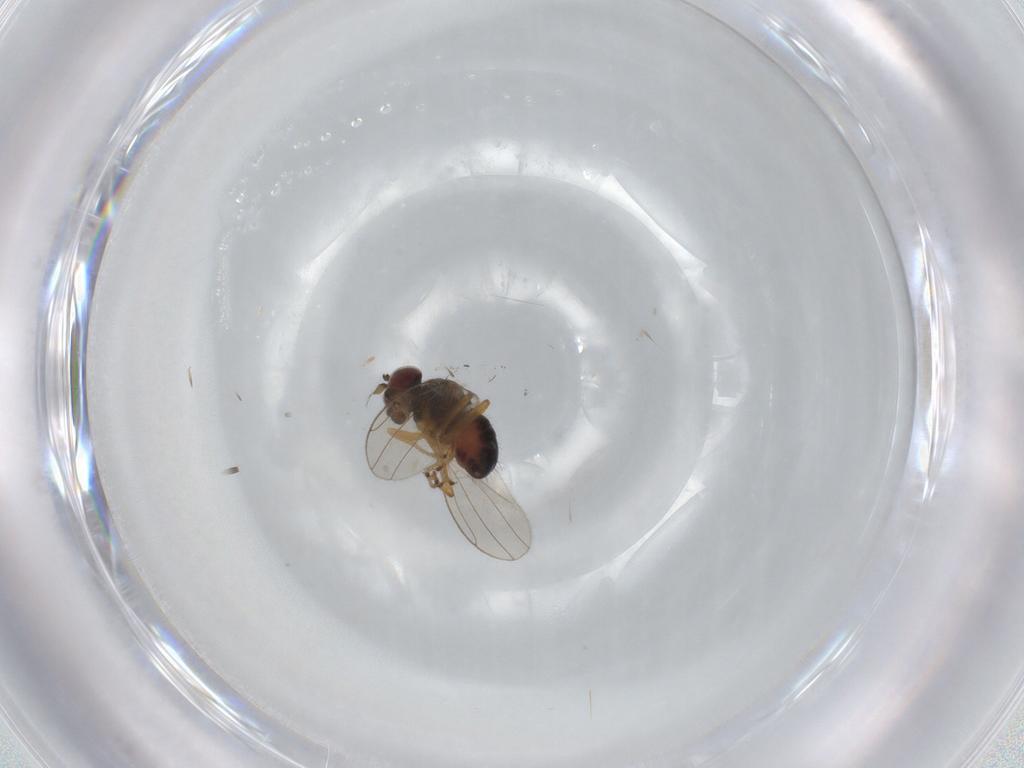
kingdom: Animalia
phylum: Arthropoda
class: Insecta
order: Diptera
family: Ephydridae
